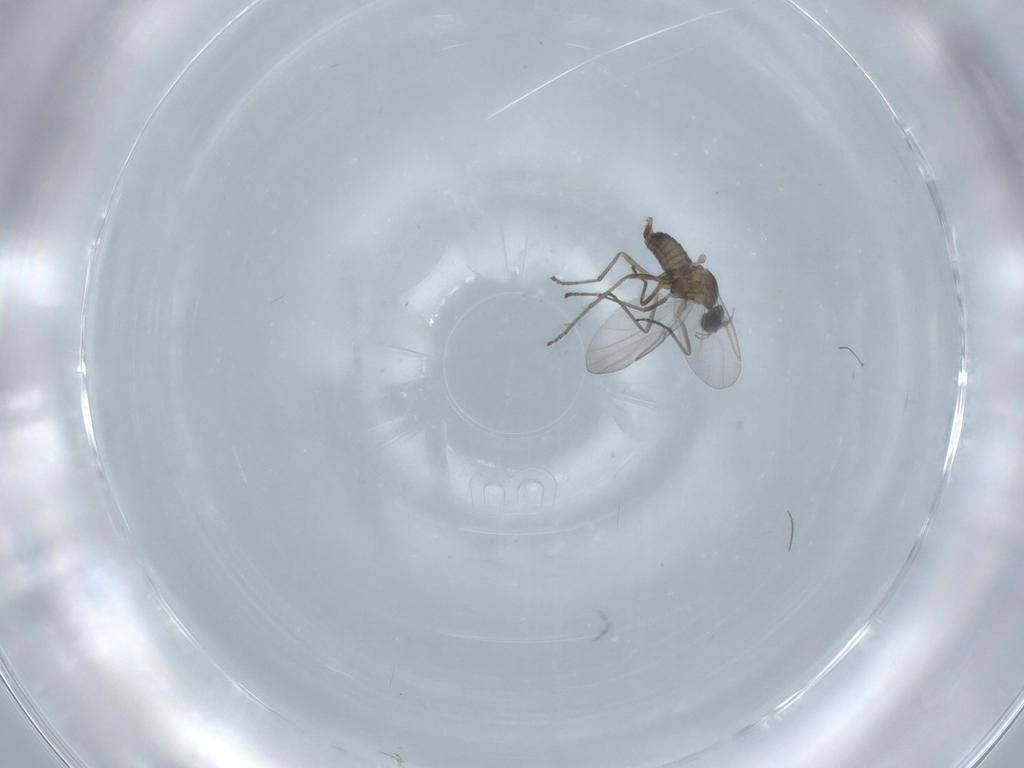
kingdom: Animalia
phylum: Arthropoda
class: Insecta
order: Diptera
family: Cecidomyiidae
